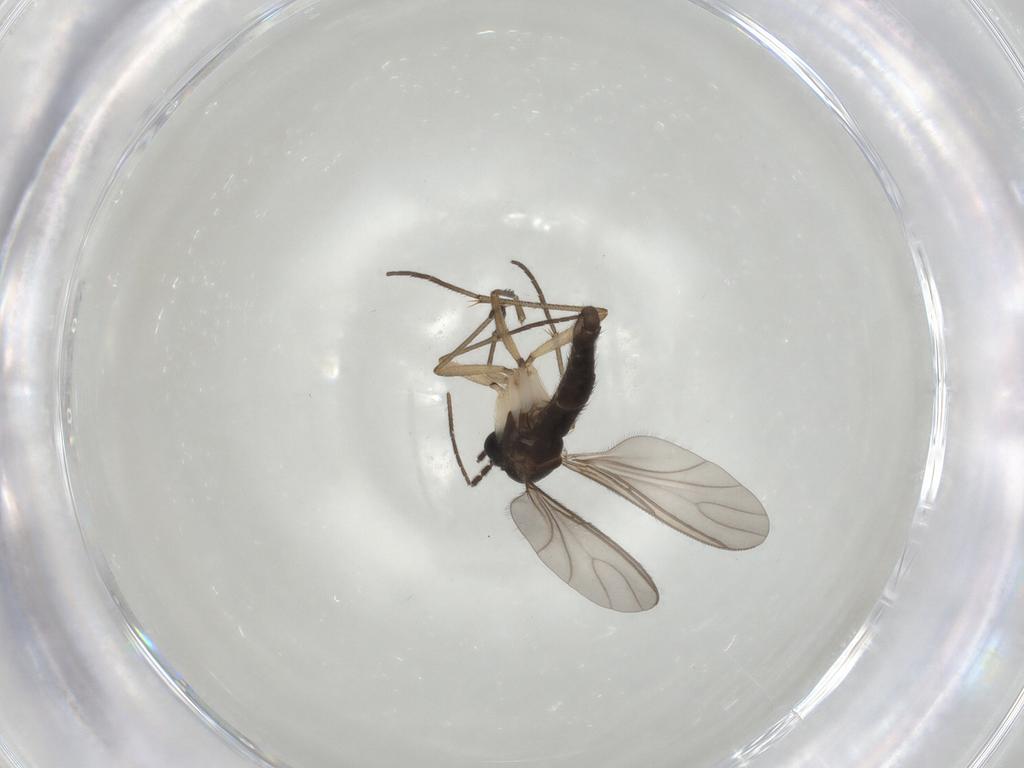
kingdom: Animalia
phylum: Arthropoda
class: Insecta
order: Diptera
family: Sciaridae
